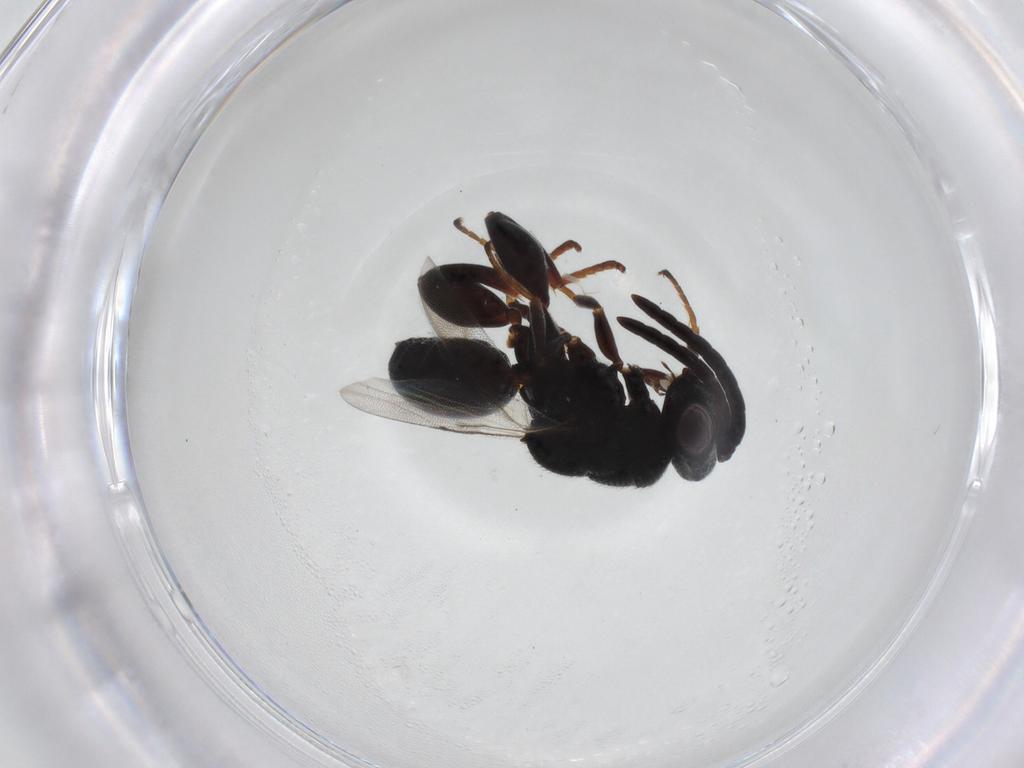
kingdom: Animalia
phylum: Arthropoda
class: Insecta
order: Hymenoptera
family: Chalcididae
